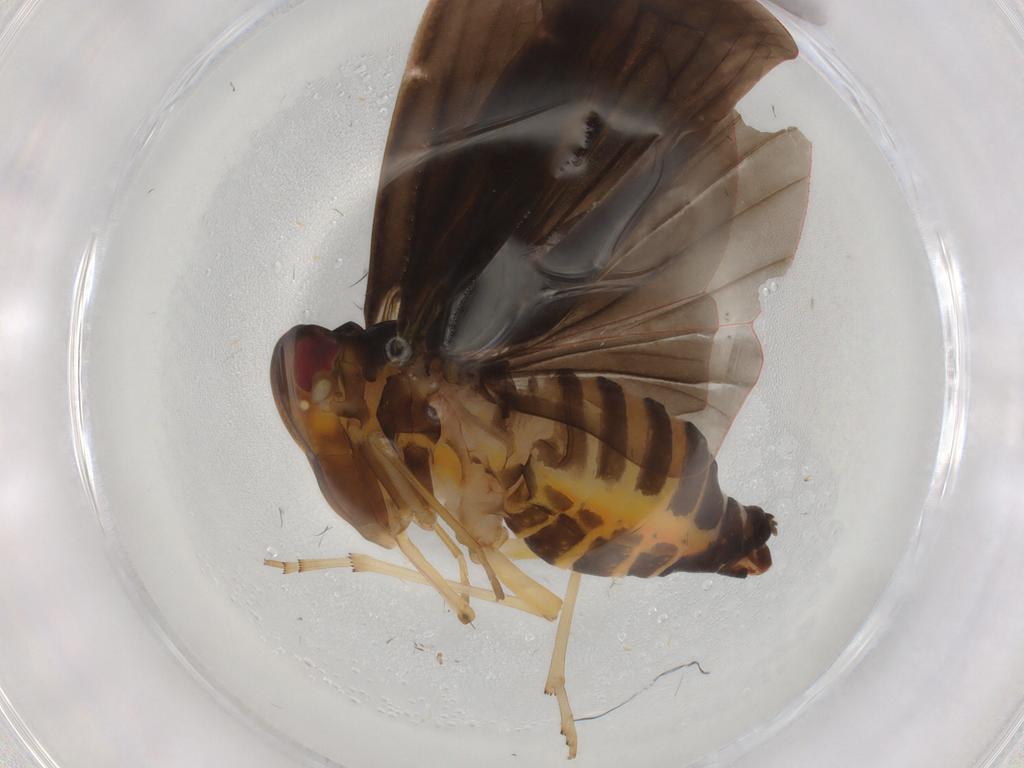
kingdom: Animalia
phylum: Arthropoda
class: Insecta
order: Hemiptera
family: Derbidae
